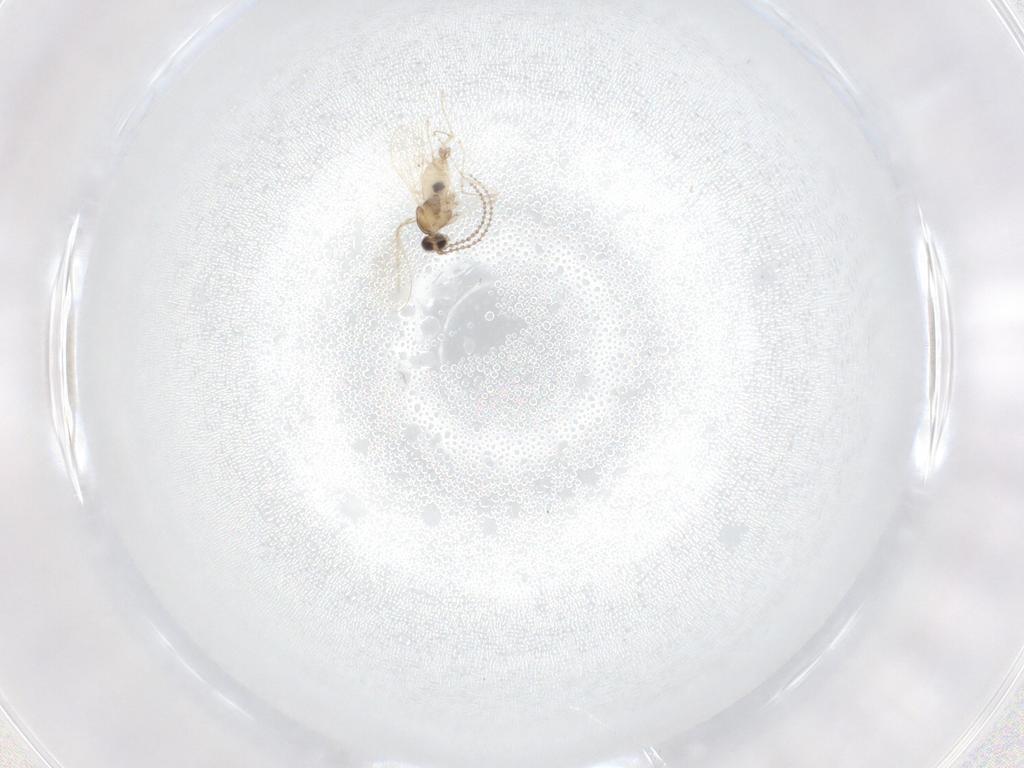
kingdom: Animalia
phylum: Arthropoda
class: Insecta
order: Diptera
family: Cecidomyiidae
